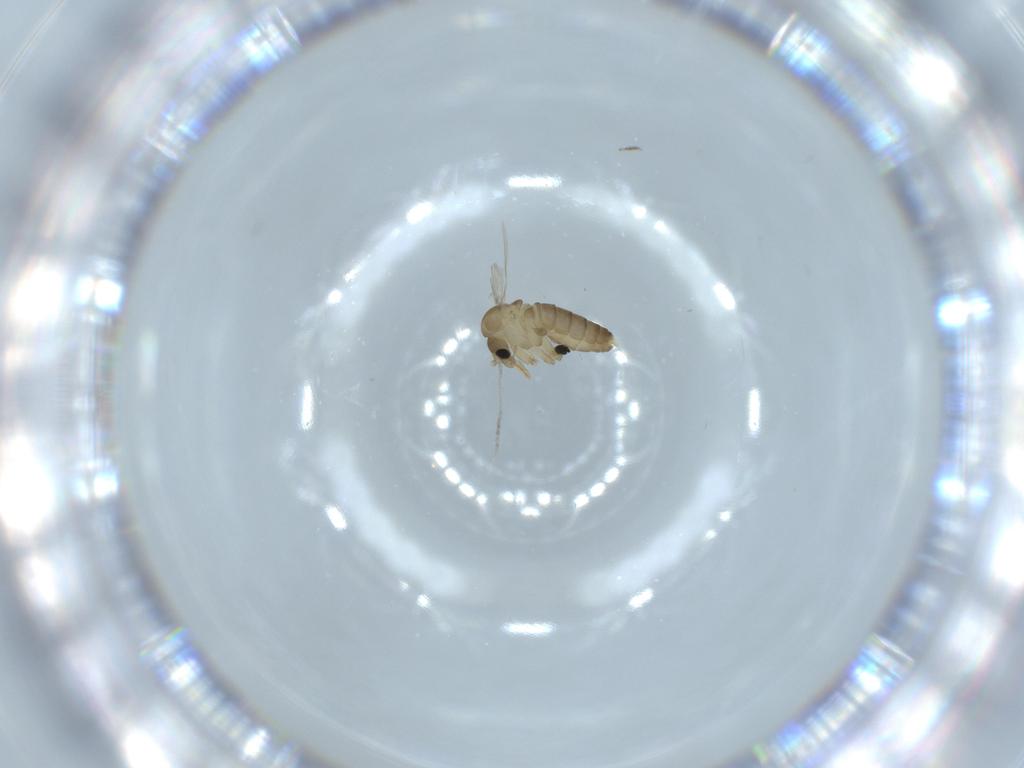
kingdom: Animalia
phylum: Arthropoda
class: Insecta
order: Diptera
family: Psychodidae
